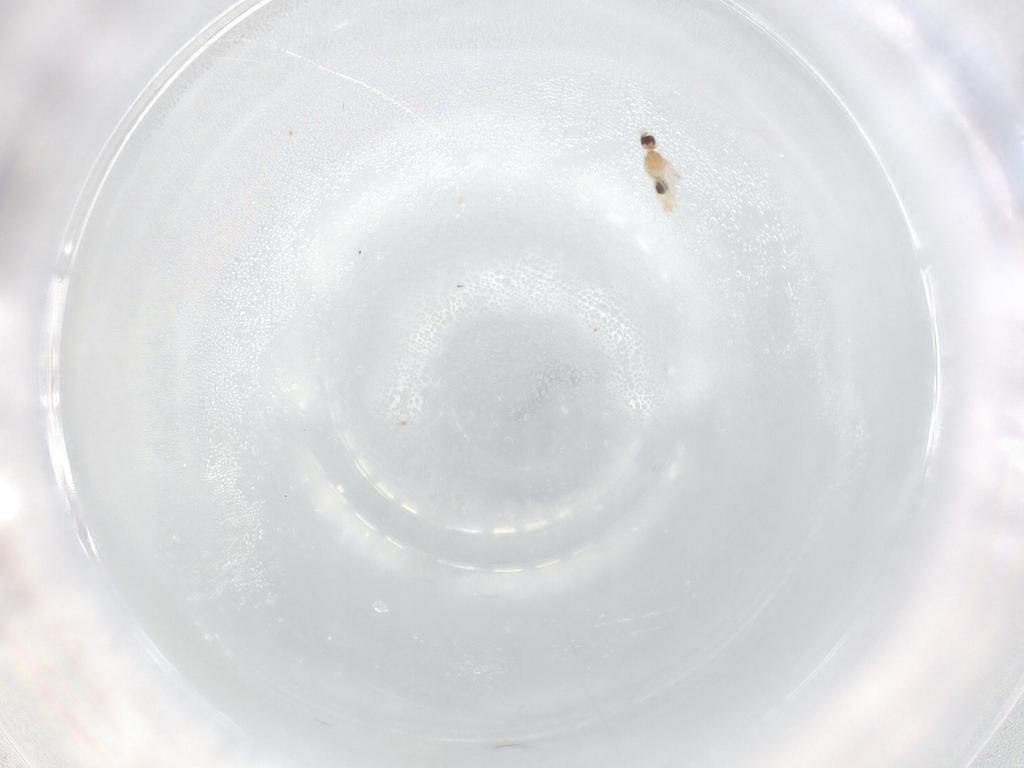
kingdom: Animalia
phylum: Arthropoda
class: Insecta
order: Diptera
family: Cecidomyiidae
